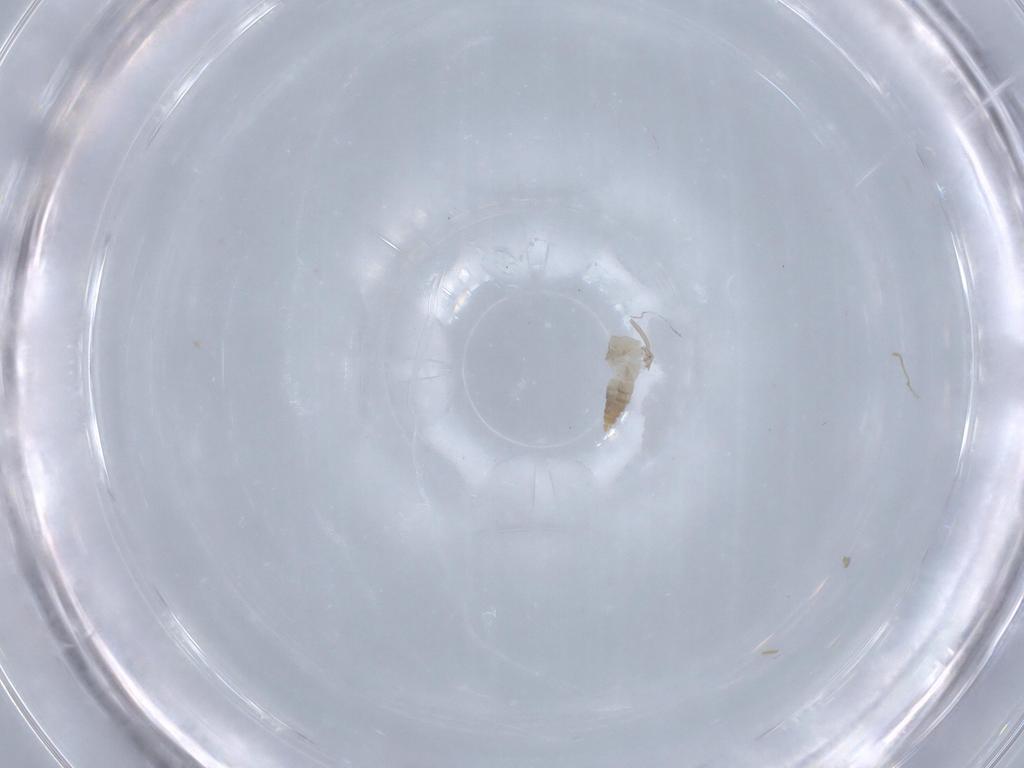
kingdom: Animalia
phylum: Arthropoda
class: Insecta
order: Diptera
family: Cecidomyiidae
